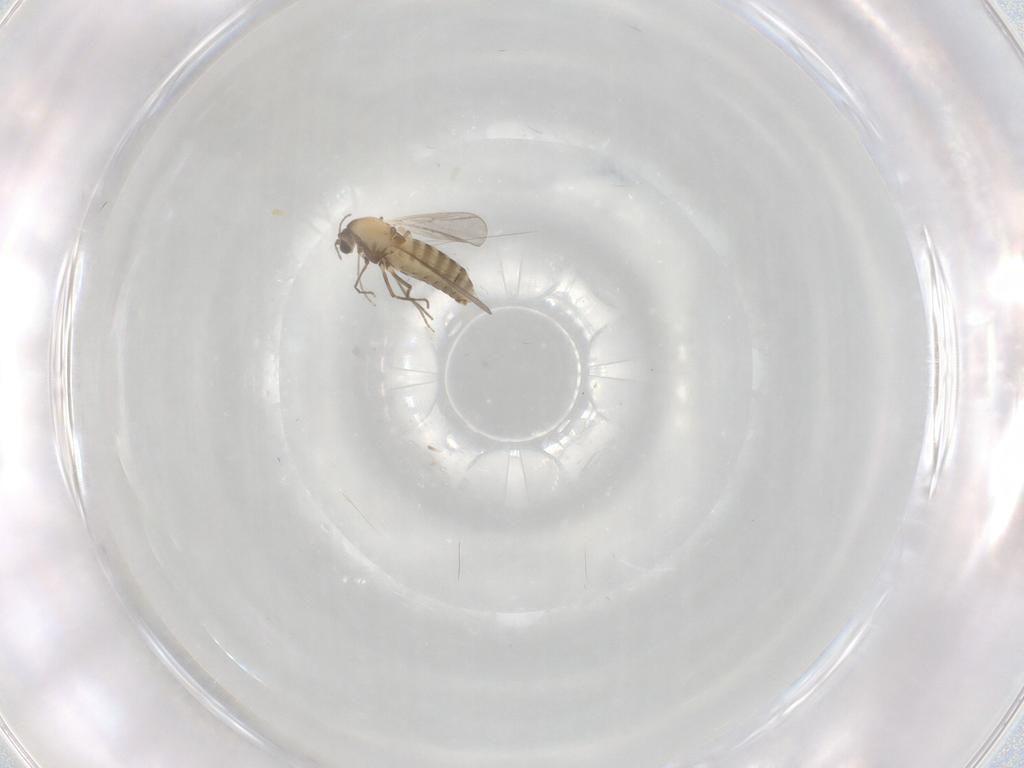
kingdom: Animalia
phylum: Arthropoda
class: Insecta
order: Diptera
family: Chironomidae
